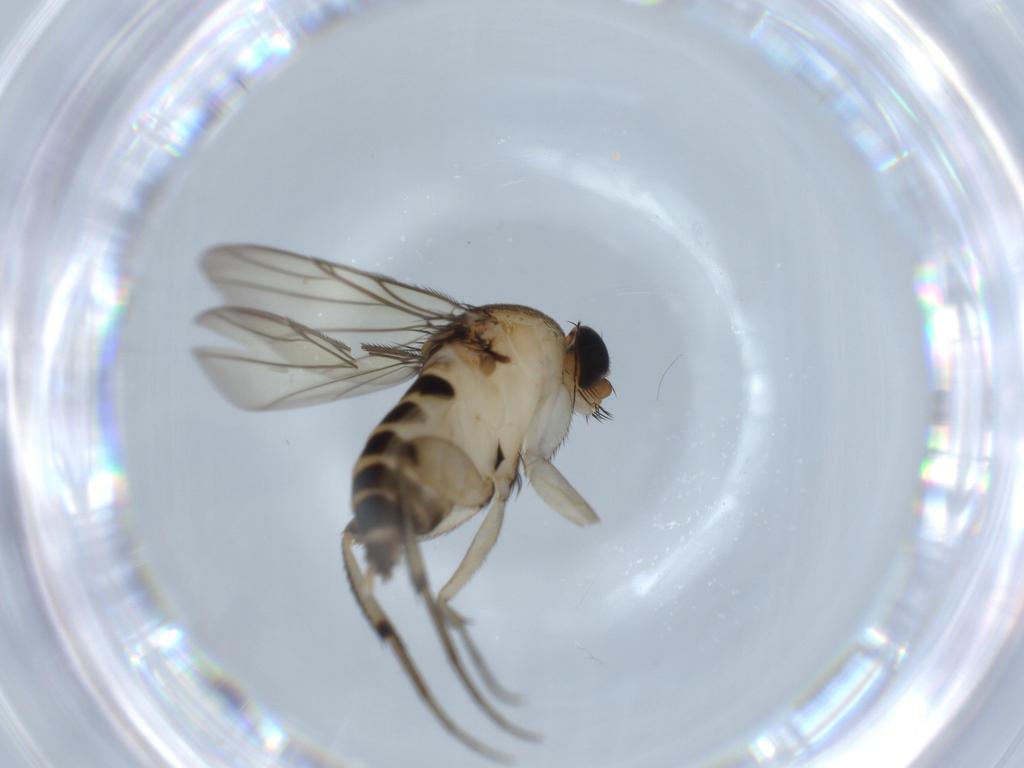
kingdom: Animalia
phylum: Arthropoda
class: Insecta
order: Diptera
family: Phoridae
